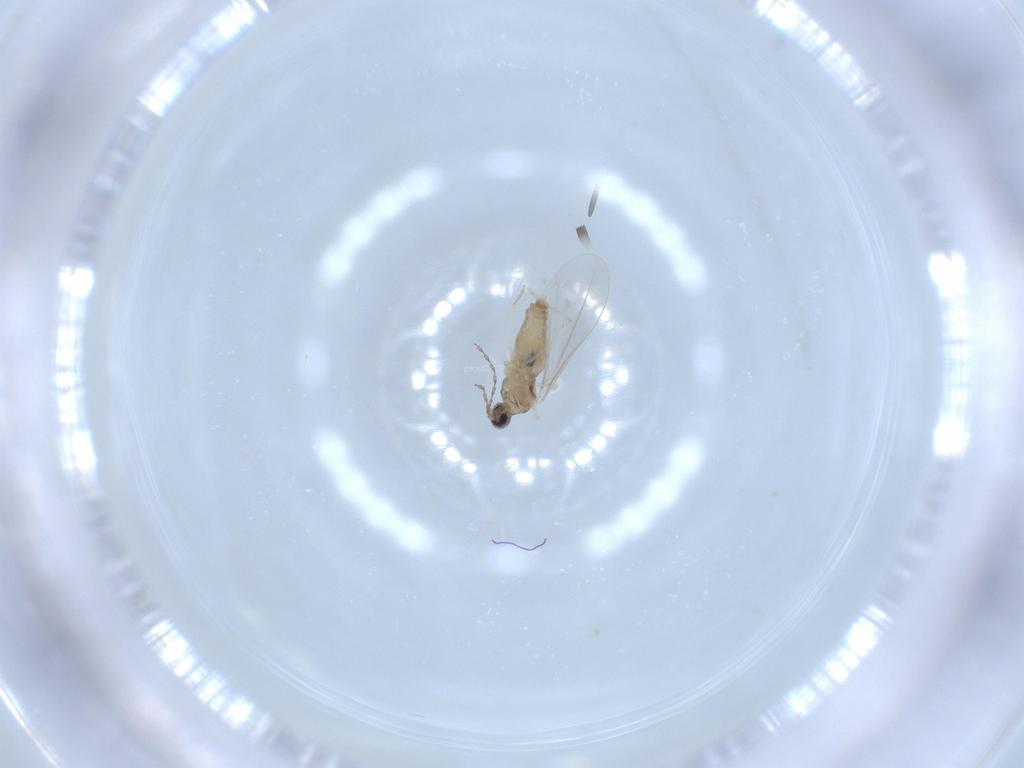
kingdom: Animalia
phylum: Arthropoda
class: Insecta
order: Diptera
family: Cecidomyiidae
